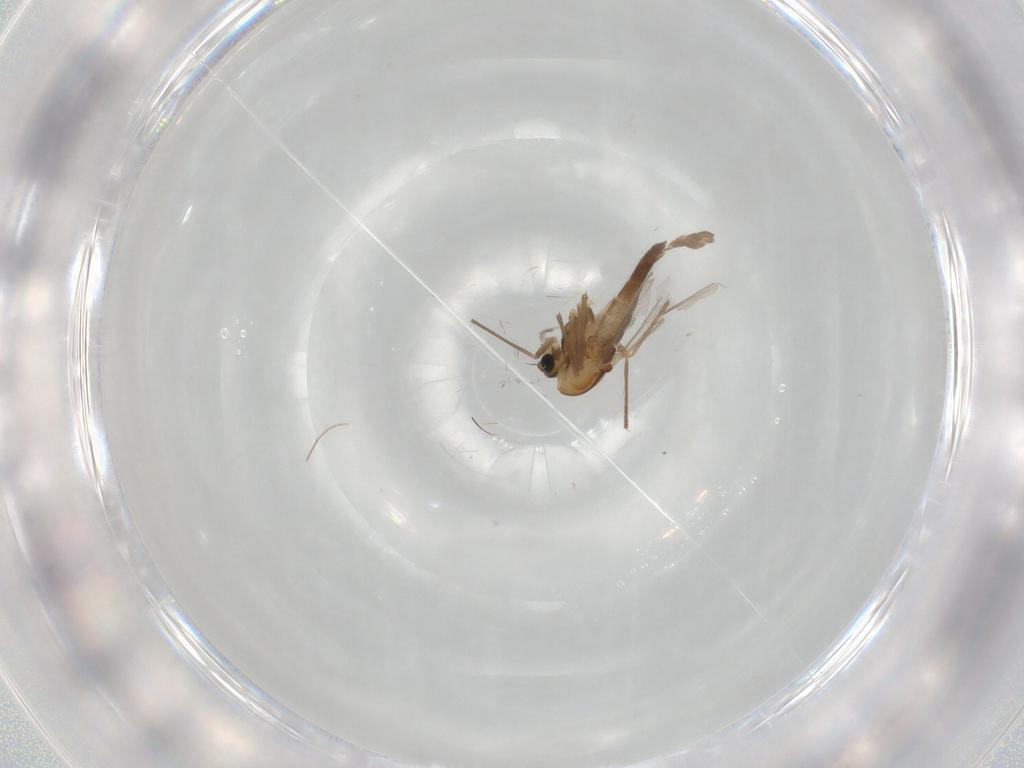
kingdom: Animalia
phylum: Arthropoda
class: Insecta
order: Diptera
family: Chironomidae
